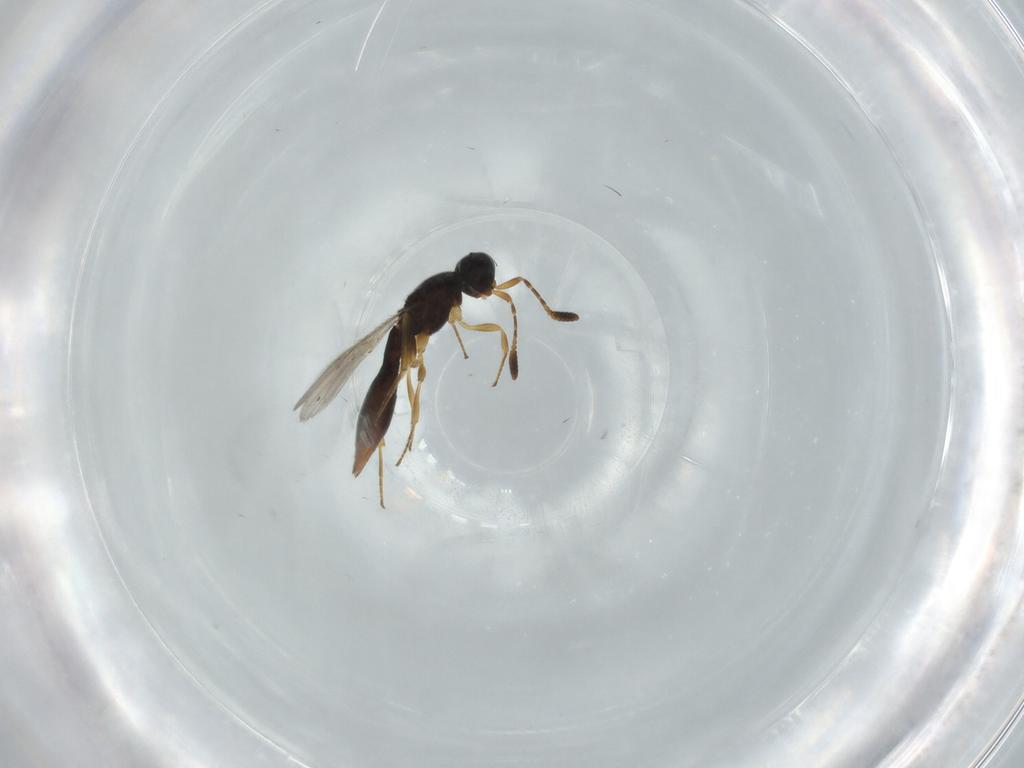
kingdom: Animalia
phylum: Arthropoda
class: Insecta
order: Hymenoptera
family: Scelionidae
